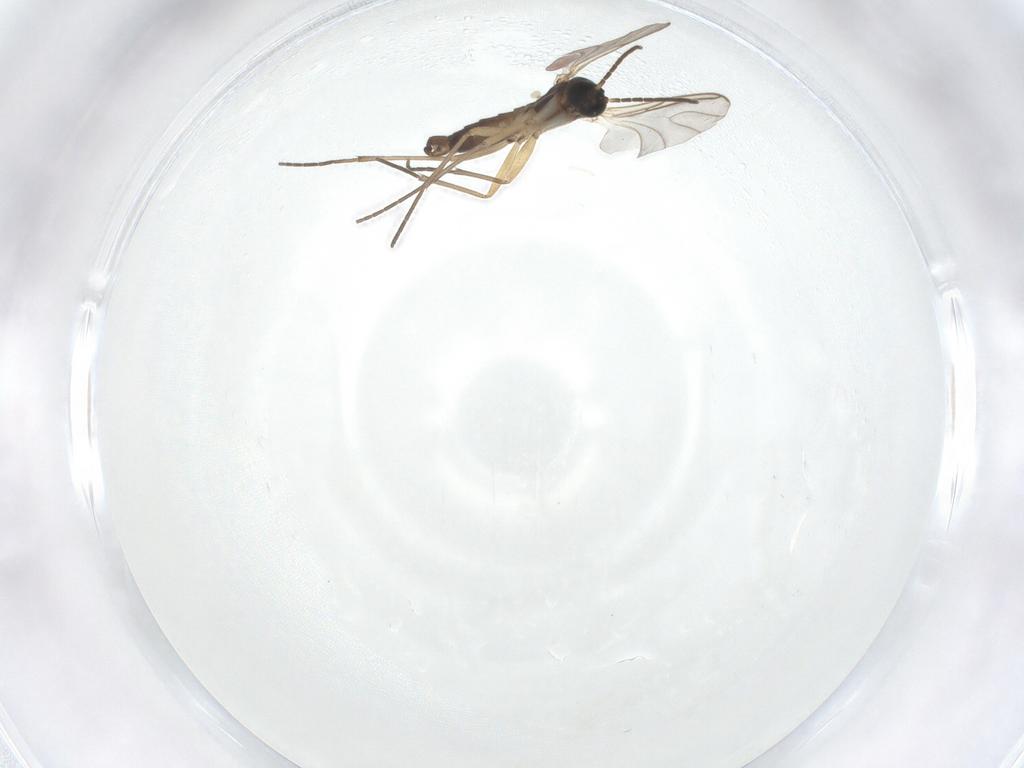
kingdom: Animalia
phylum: Arthropoda
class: Insecta
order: Diptera
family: Sciaridae
